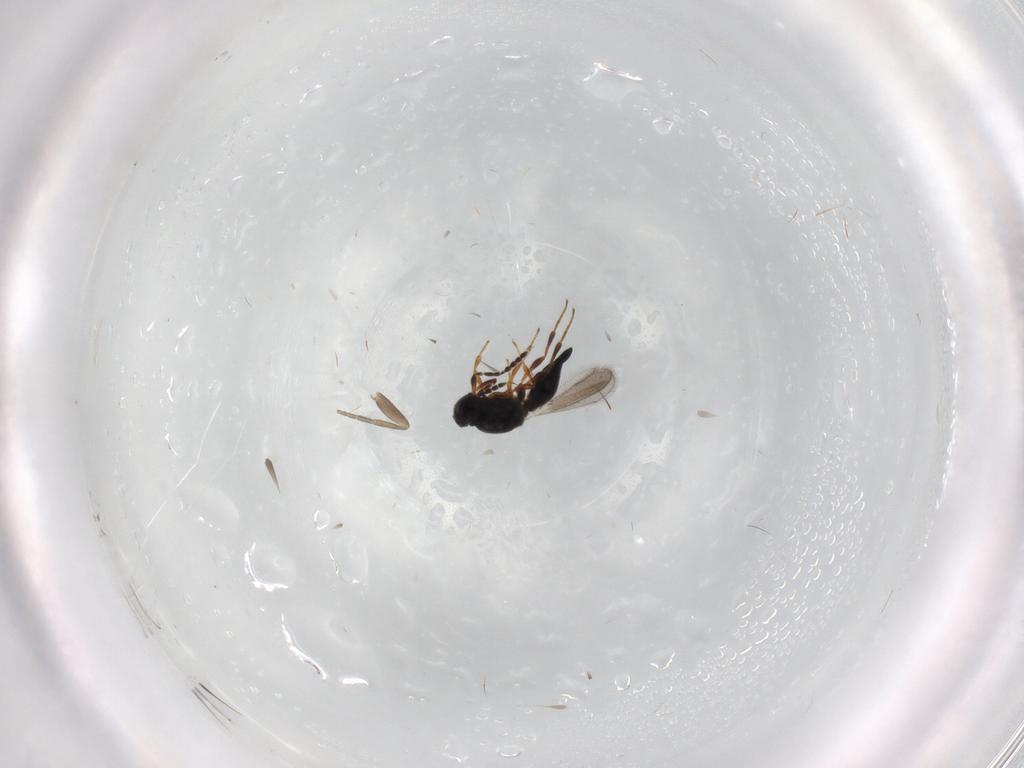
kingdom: Animalia
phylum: Arthropoda
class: Insecta
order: Hymenoptera
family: Platygastridae
